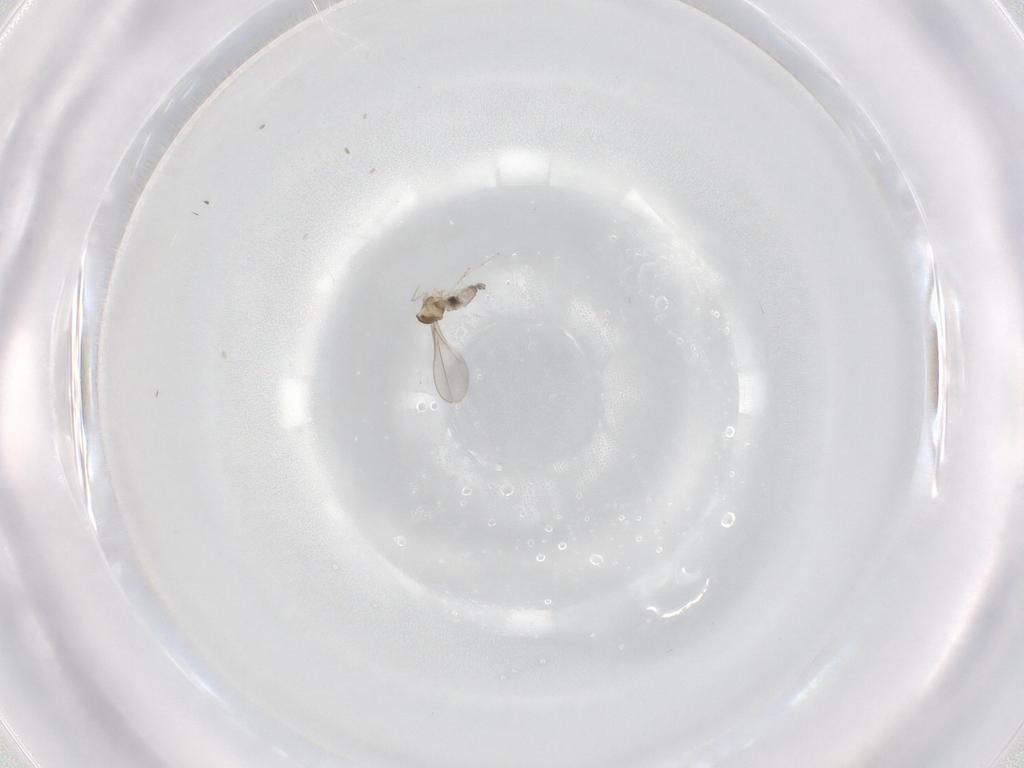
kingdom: Animalia
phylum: Arthropoda
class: Insecta
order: Diptera
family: Cecidomyiidae
